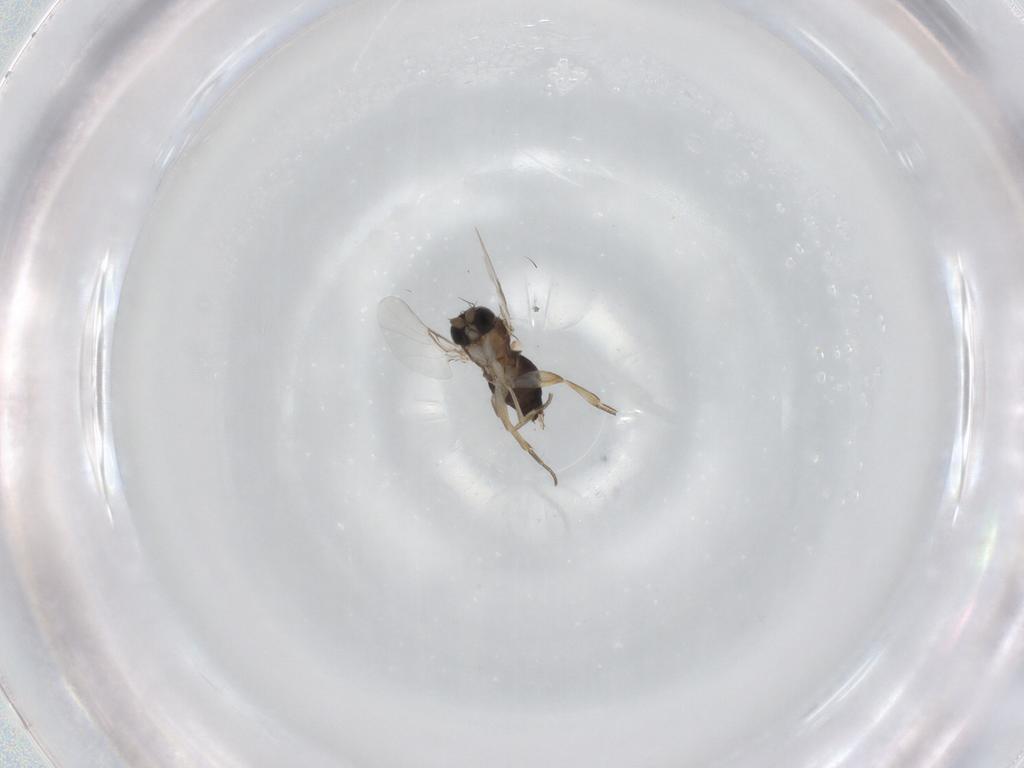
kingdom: Animalia
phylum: Arthropoda
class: Insecta
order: Diptera
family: Phoridae
